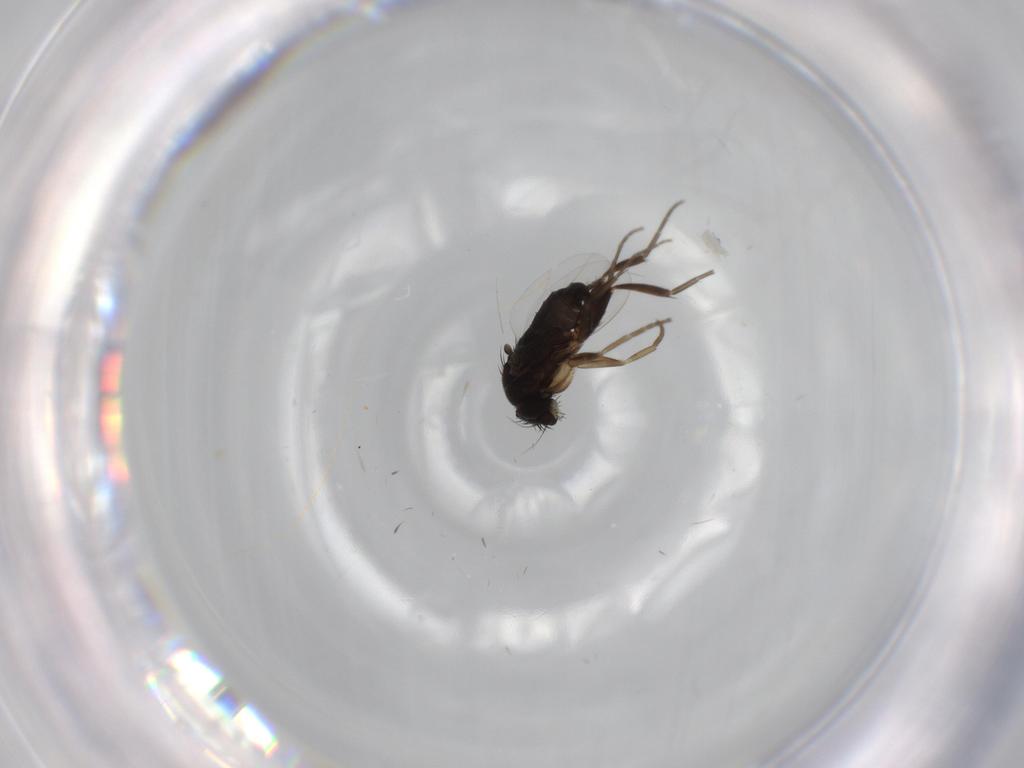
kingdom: Animalia
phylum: Arthropoda
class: Insecta
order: Diptera
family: Phoridae
